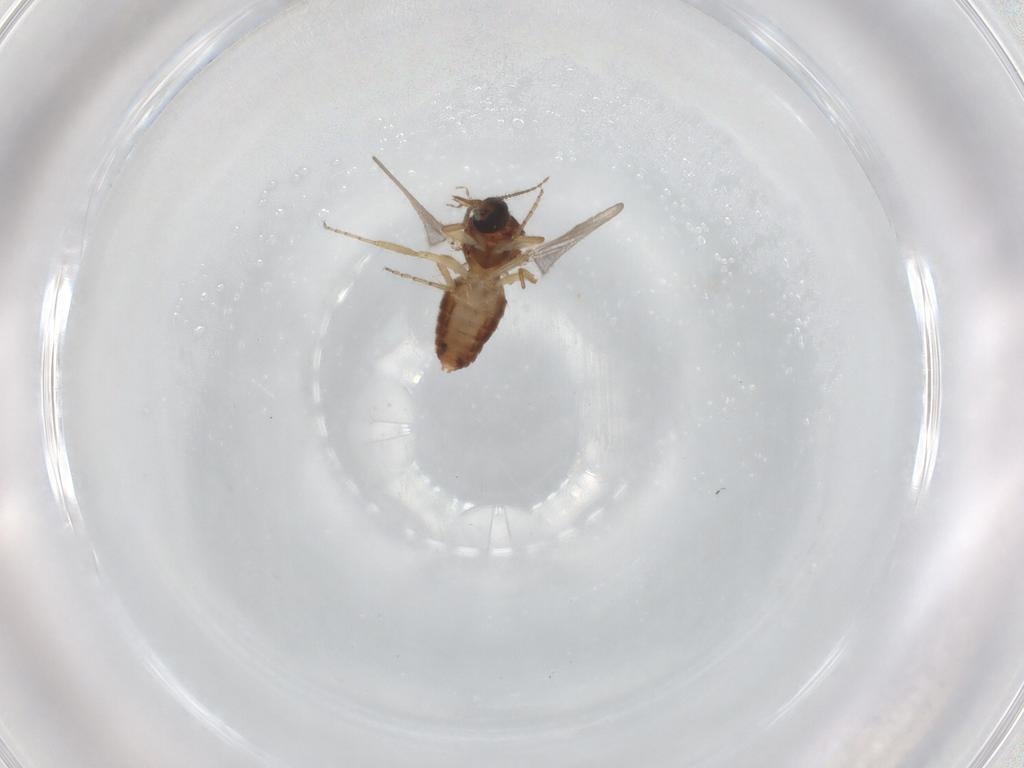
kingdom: Animalia
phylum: Arthropoda
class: Insecta
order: Diptera
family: Ceratopogonidae
